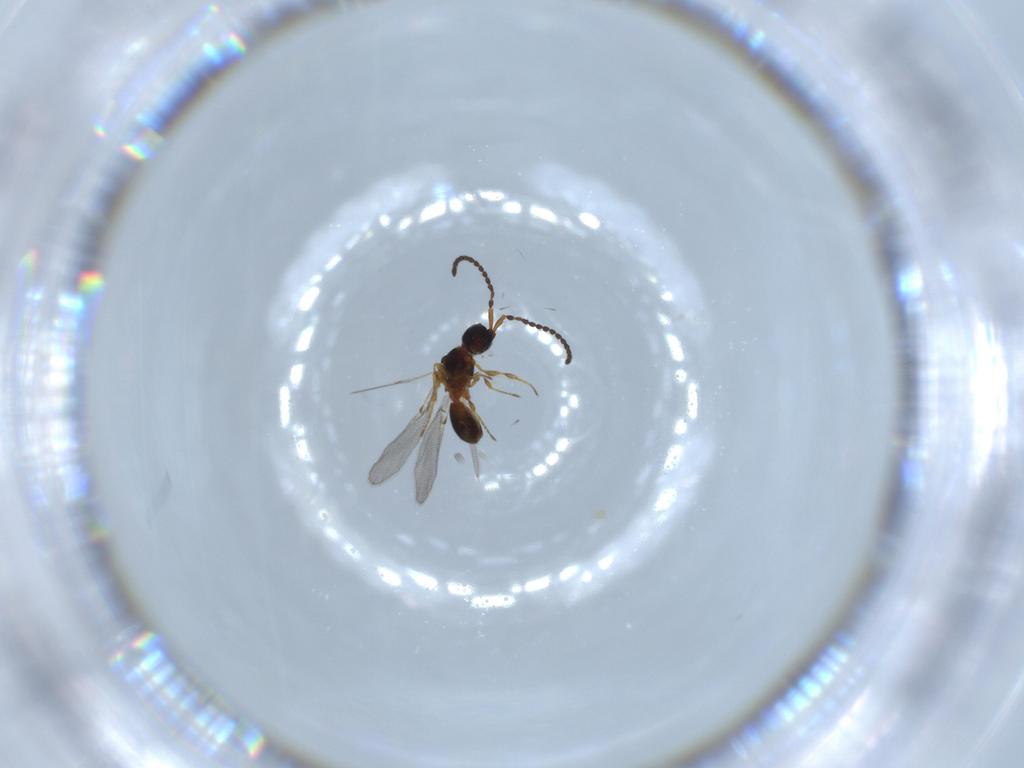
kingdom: Animalia
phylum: Arthropoda
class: Insecta
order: Hymenoptera
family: Diapriidae
